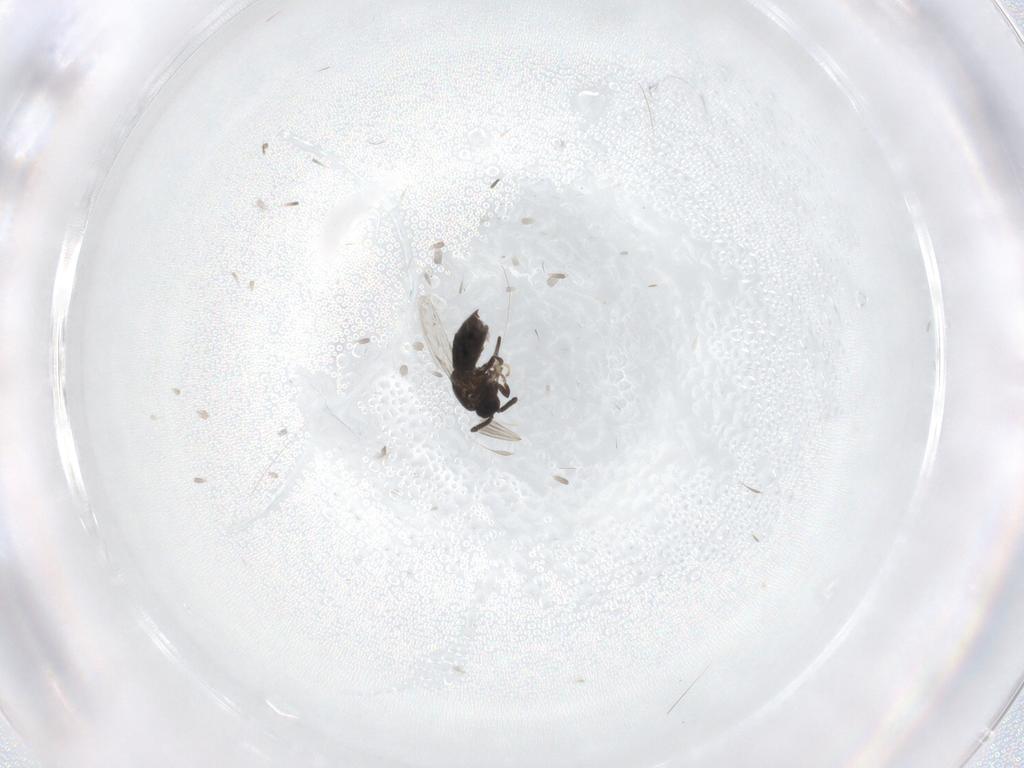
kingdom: Animalia
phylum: Arthropoda
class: Insecta
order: Diptera
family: Scatopsidae
